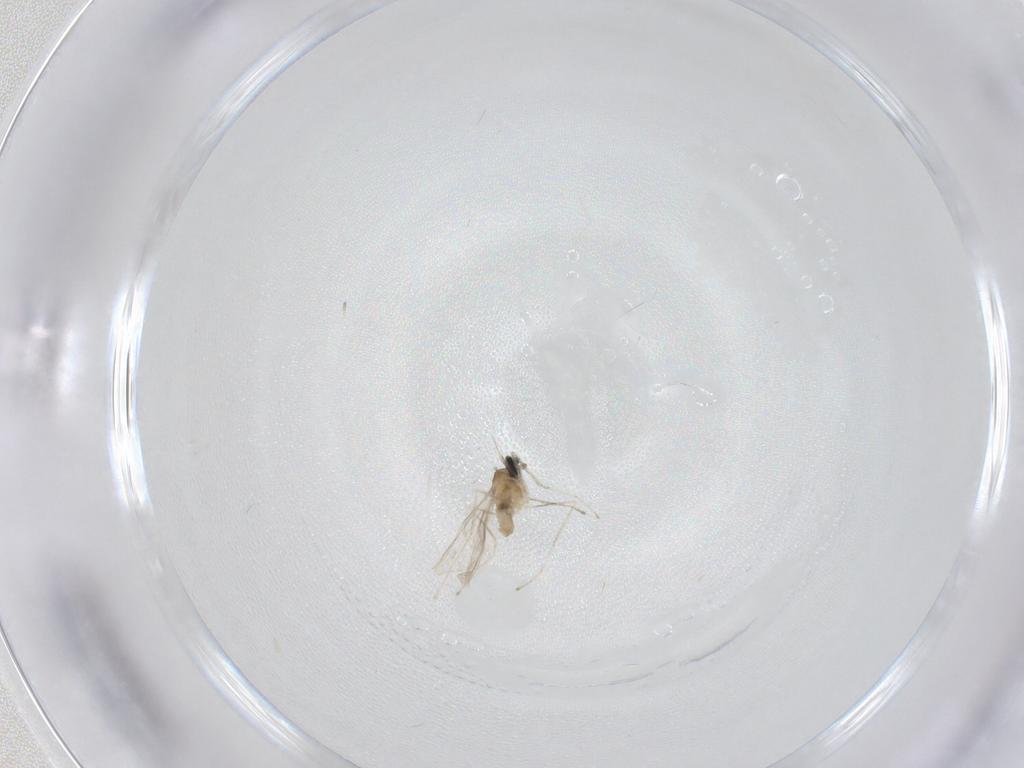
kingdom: Animalia
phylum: Arthropoda
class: Insecta
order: Diptera
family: Cecidomyiidae
